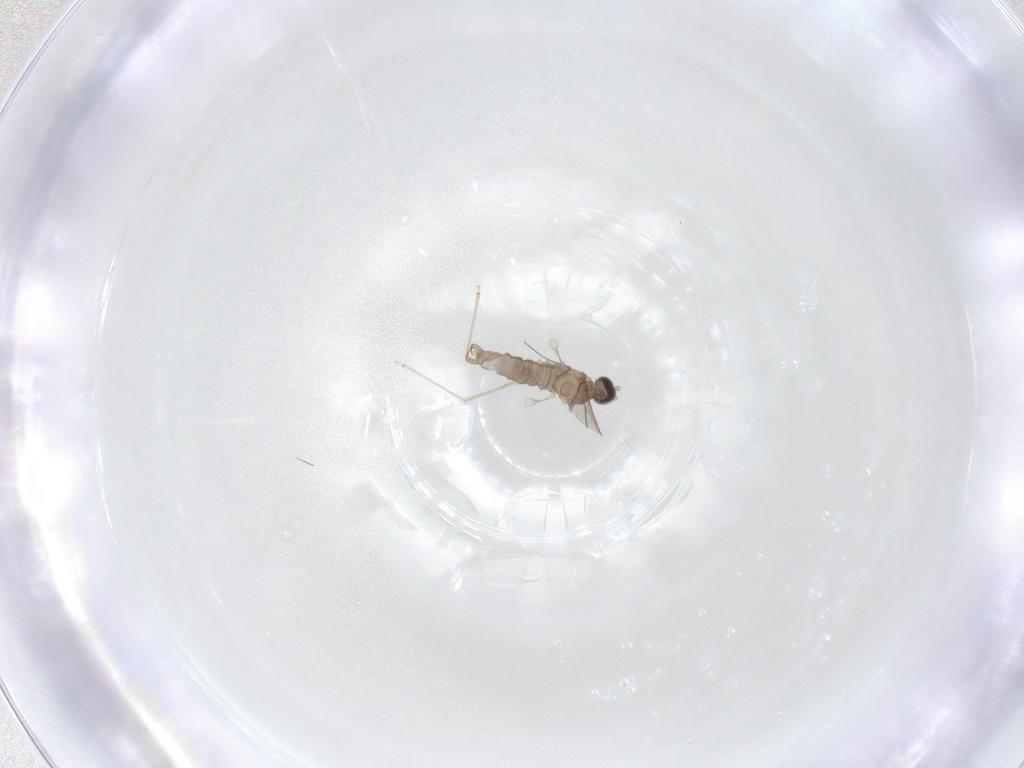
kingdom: Animalia
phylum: Arthropoda
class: Insecta
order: Diptera
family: Cecidomyiidae
